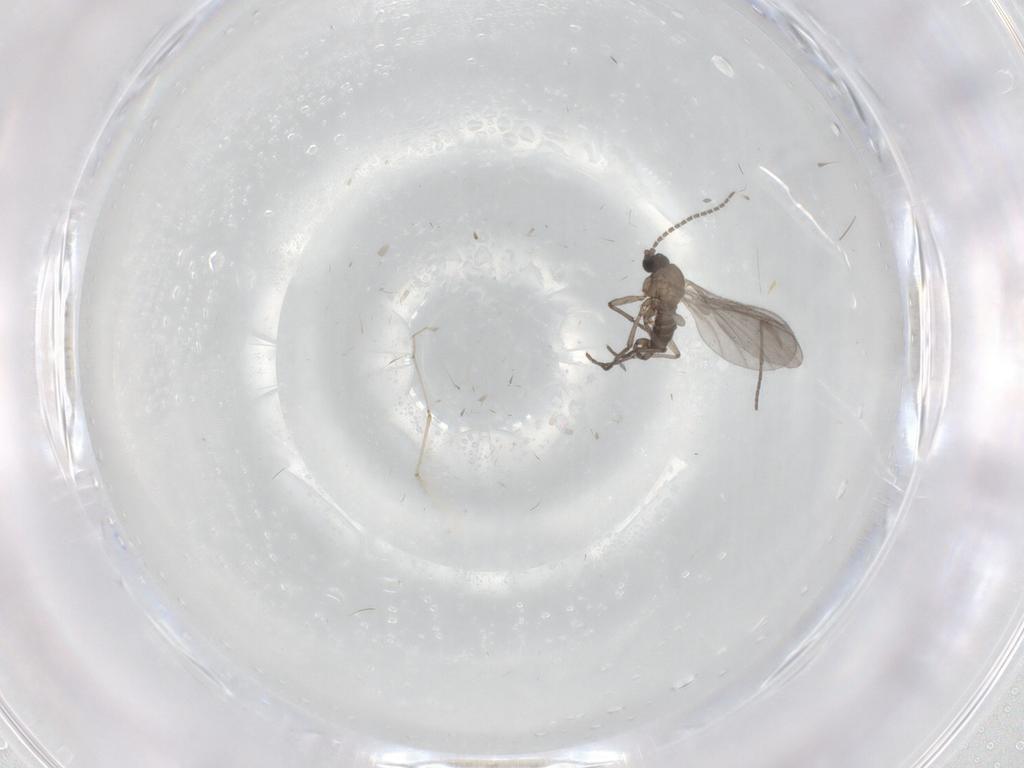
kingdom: Animalia
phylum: Arthropoda
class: Insecta
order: Diptera
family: Sciaridae
